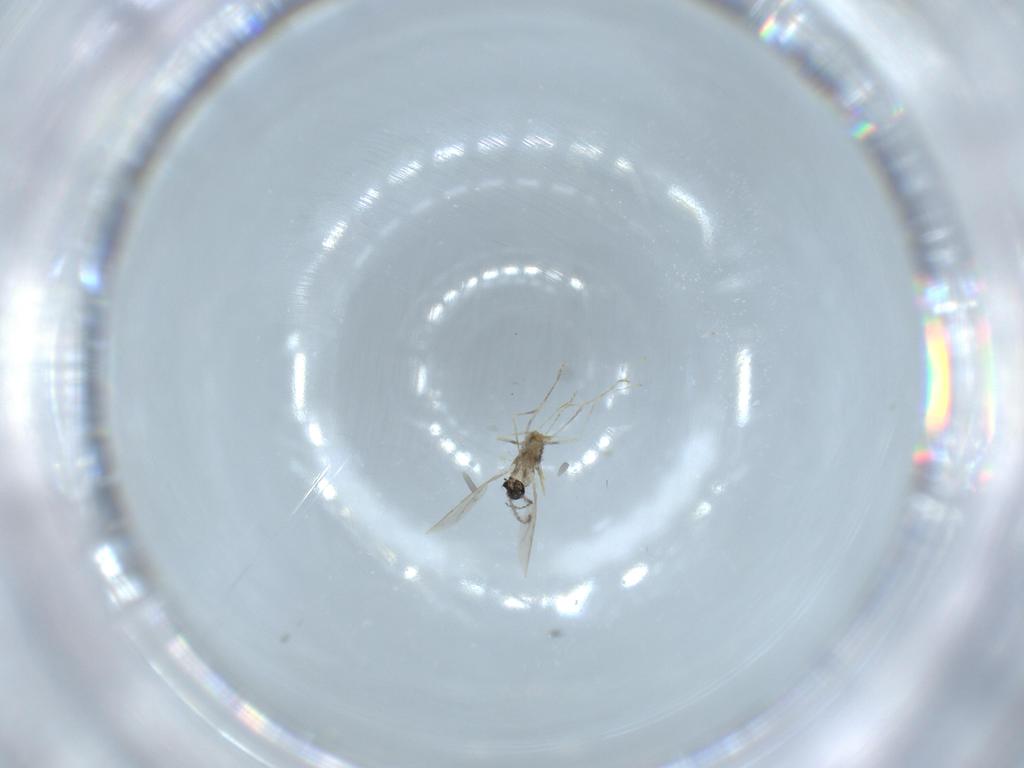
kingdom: Animalia
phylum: Arthropoda
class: Insecta
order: Diptera
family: Cecidomyiidae
